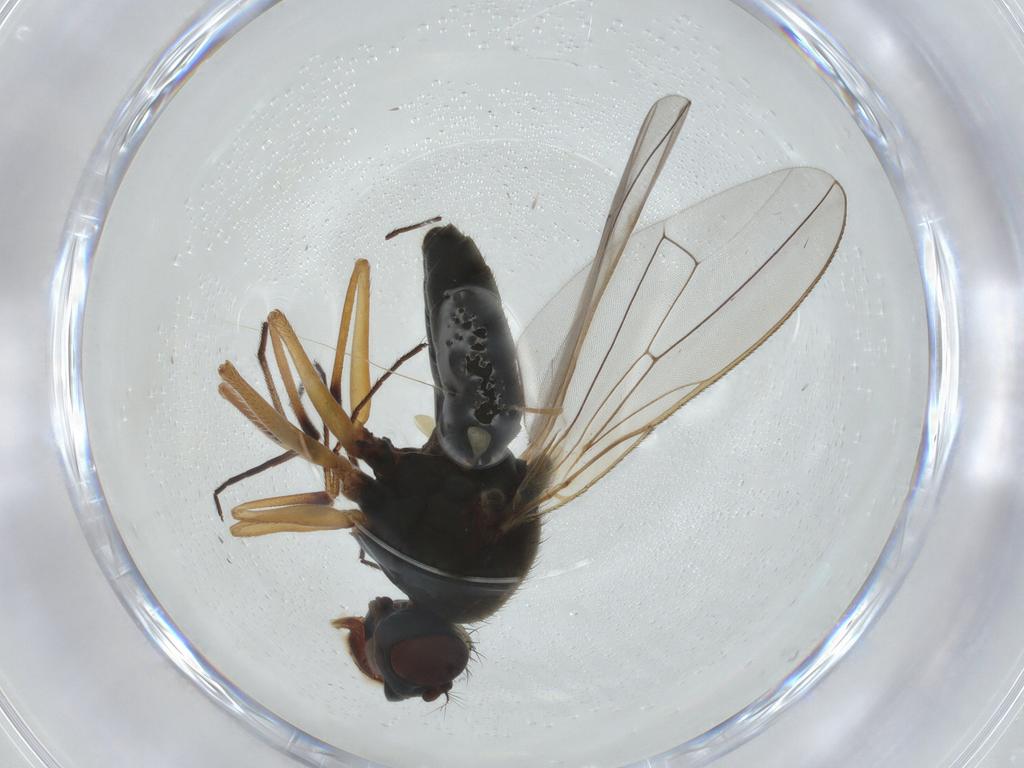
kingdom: Animalia
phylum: Arthropoda
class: Insecta
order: Diptera
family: Ephydridae
